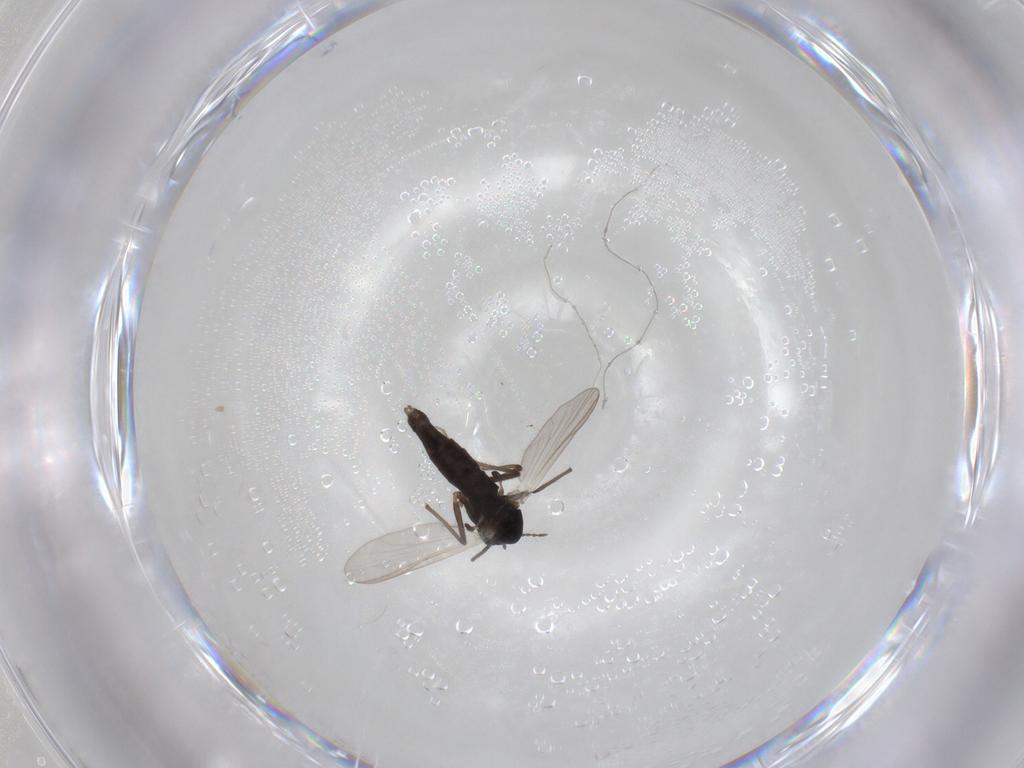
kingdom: Animalia
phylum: Arthropoda
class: Insecta
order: Diptera
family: Chironomidae
